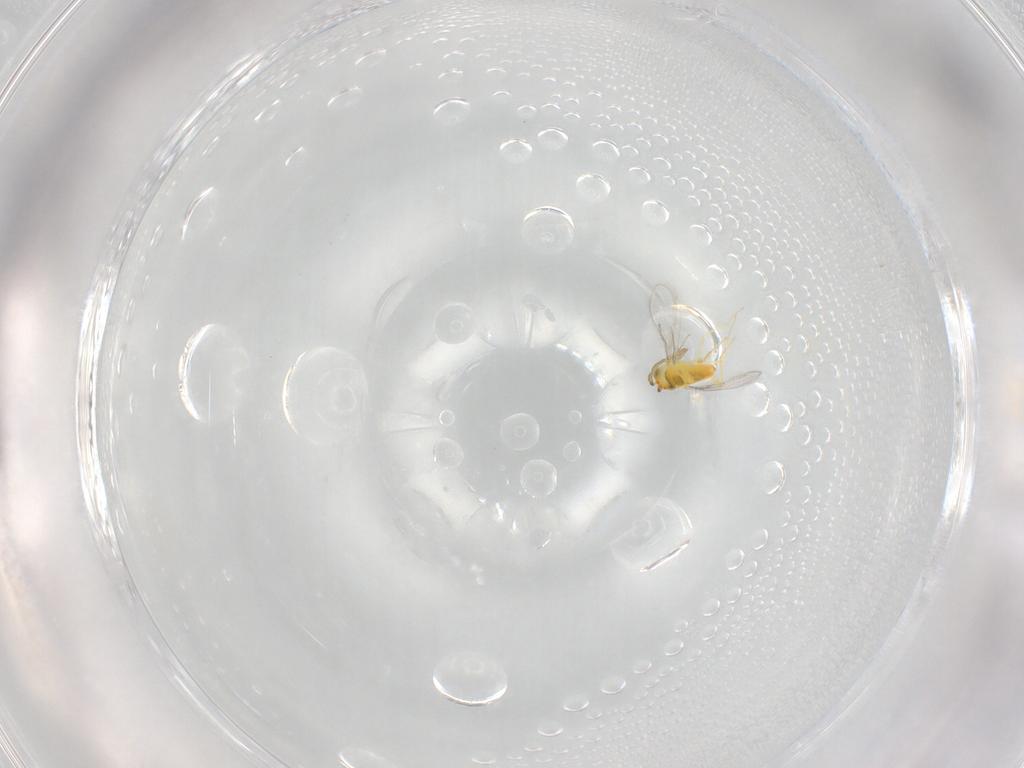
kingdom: Animalia
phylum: Arthropoda
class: Insecta
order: Hymenoptera
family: Aphelinidae
